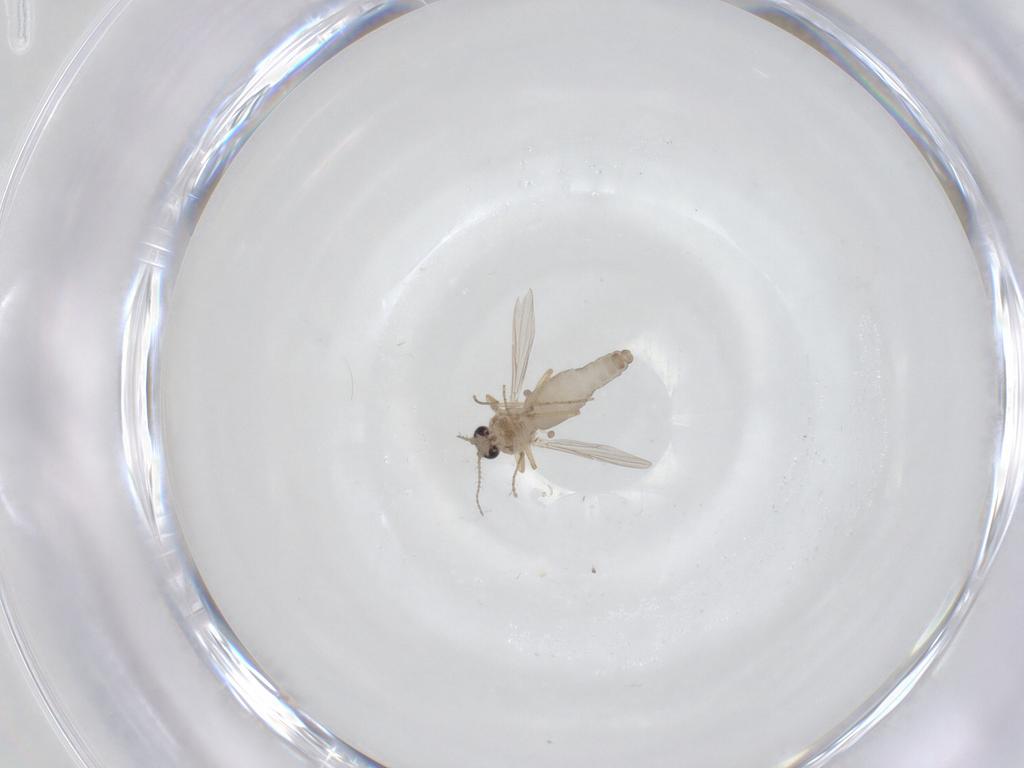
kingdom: Animalia
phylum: Arthropoda
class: Insecta
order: Diptera
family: Ceratopogonidae
